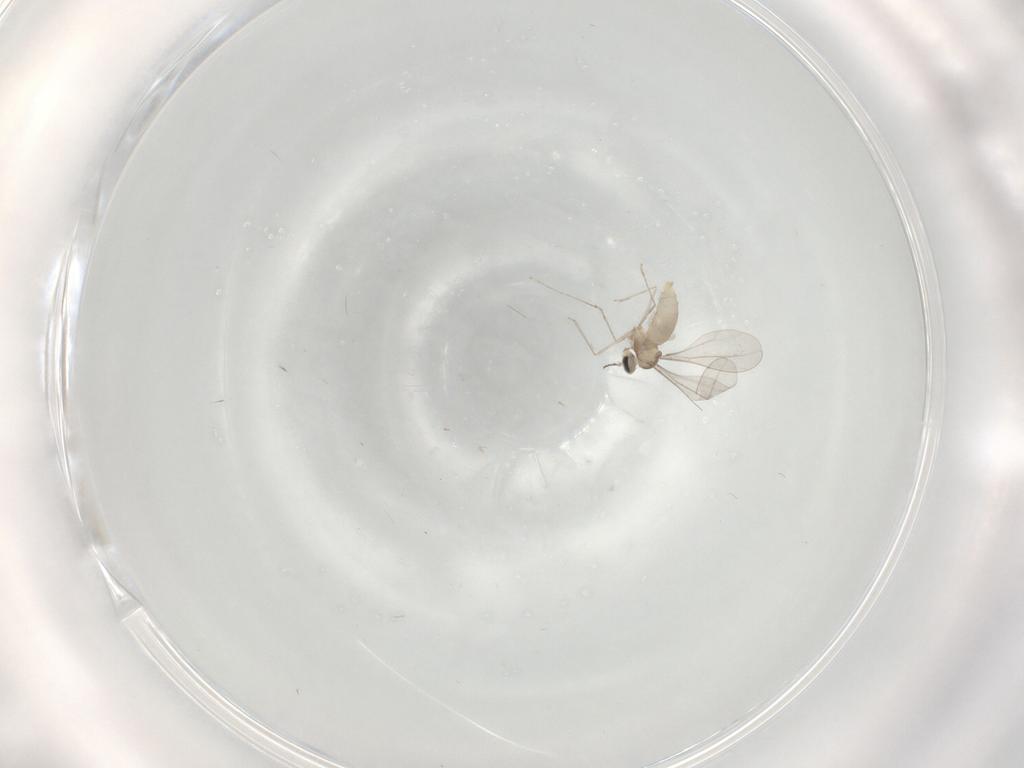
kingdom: Animalia
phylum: Arthropoda
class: Insecta
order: Diptera
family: Cecidomyiidae
